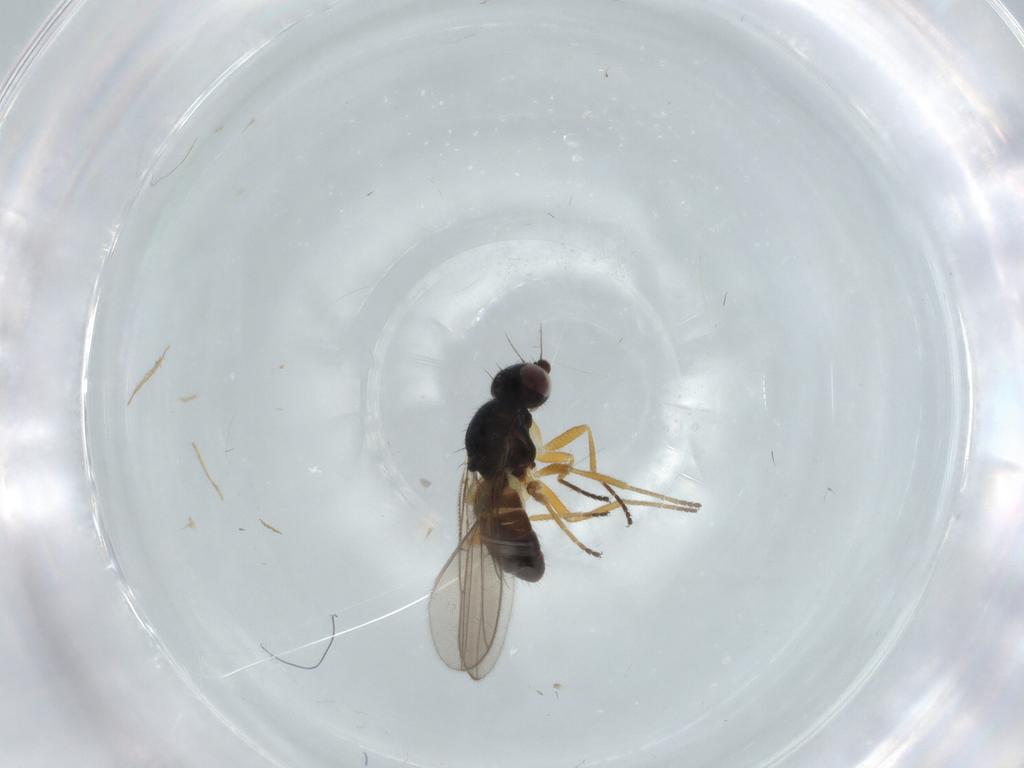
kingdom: Animalia
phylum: Arthropoda
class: Insecta
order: Diptera
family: Chloropidae
